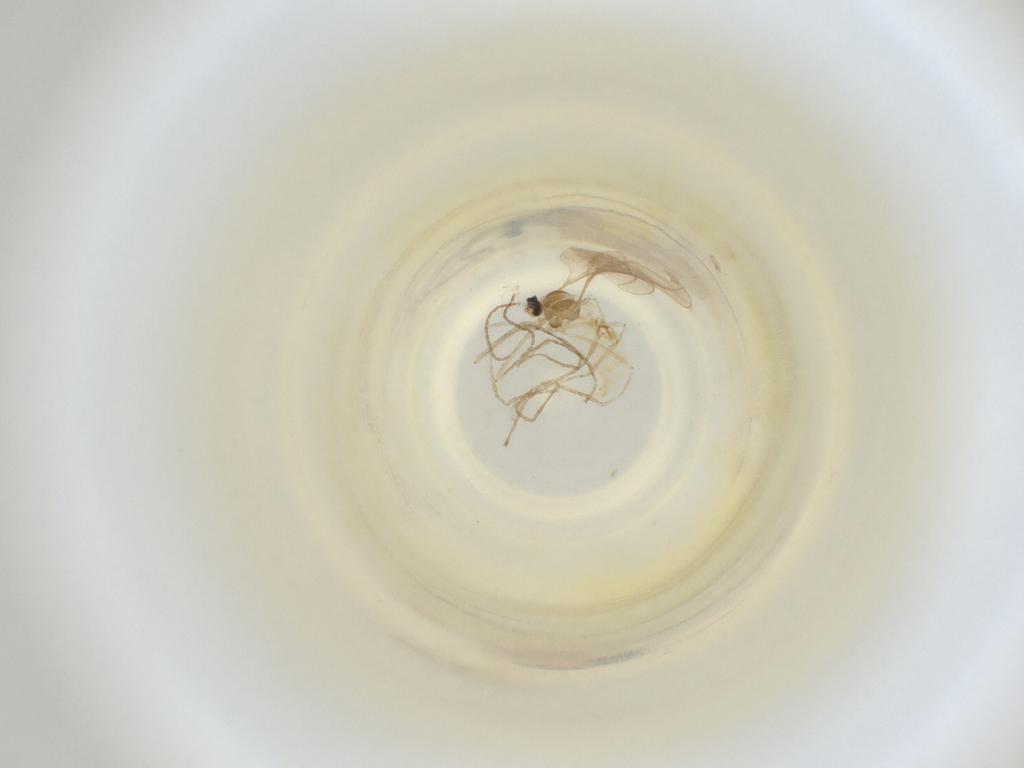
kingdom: Animalia
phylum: Arthropoda
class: Insecta
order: Diptera
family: Cecidomyiidae
